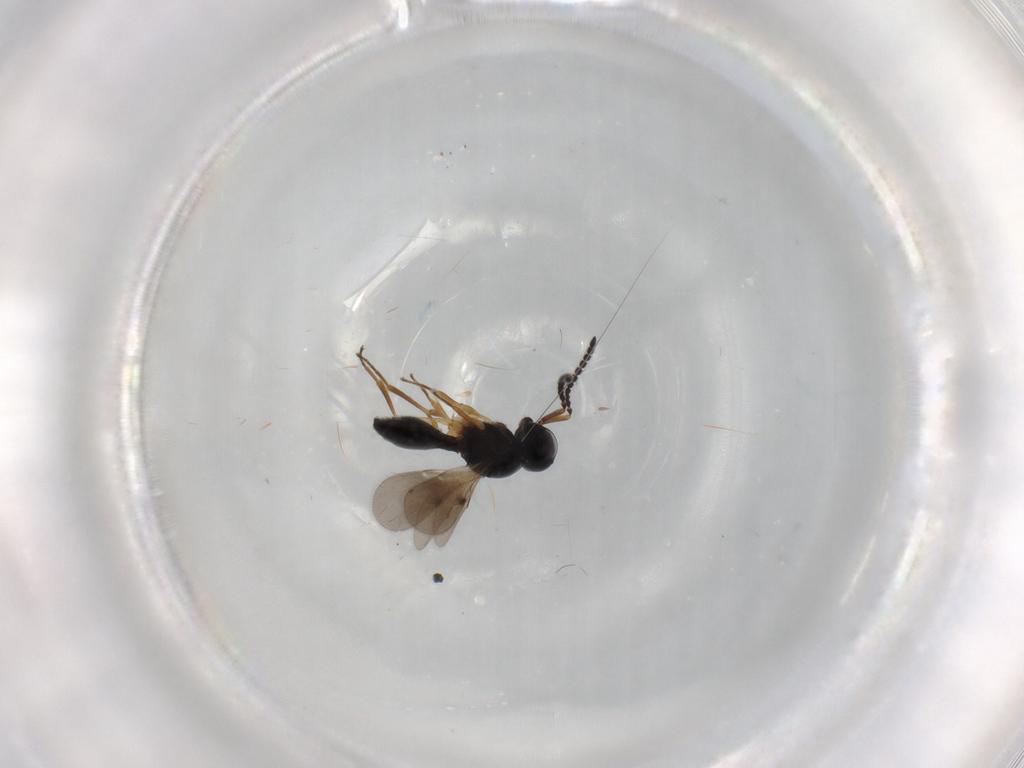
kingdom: Animalia
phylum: Arthropoda
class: Insecta
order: Hymenoptera
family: Scelionidae
